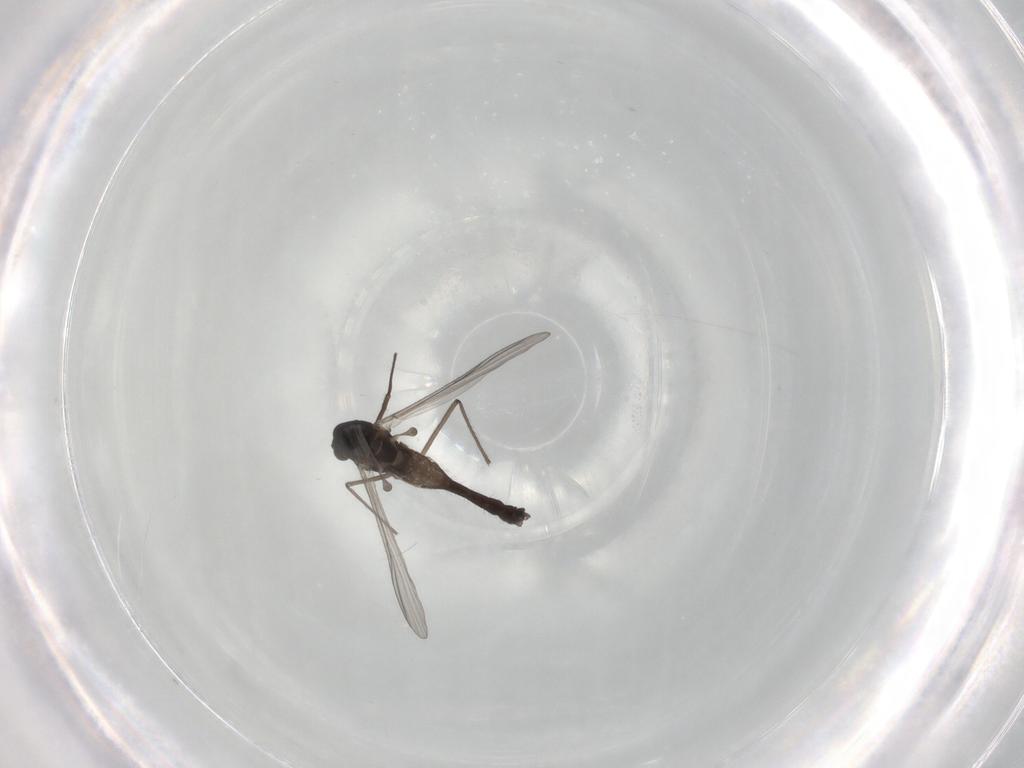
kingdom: Animalia
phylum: Arthropoda
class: Insecta
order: Diptera
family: Chironomidae
